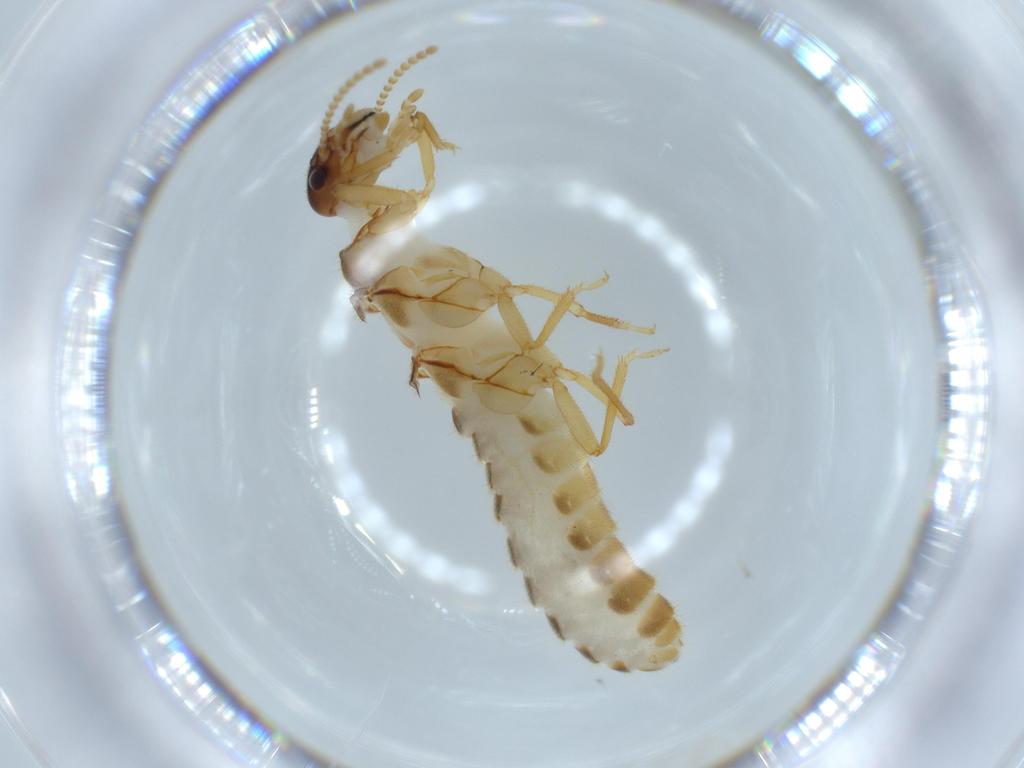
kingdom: Animalia
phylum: Arthropoda
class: Insecta
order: Blattodea
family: Termitidae
